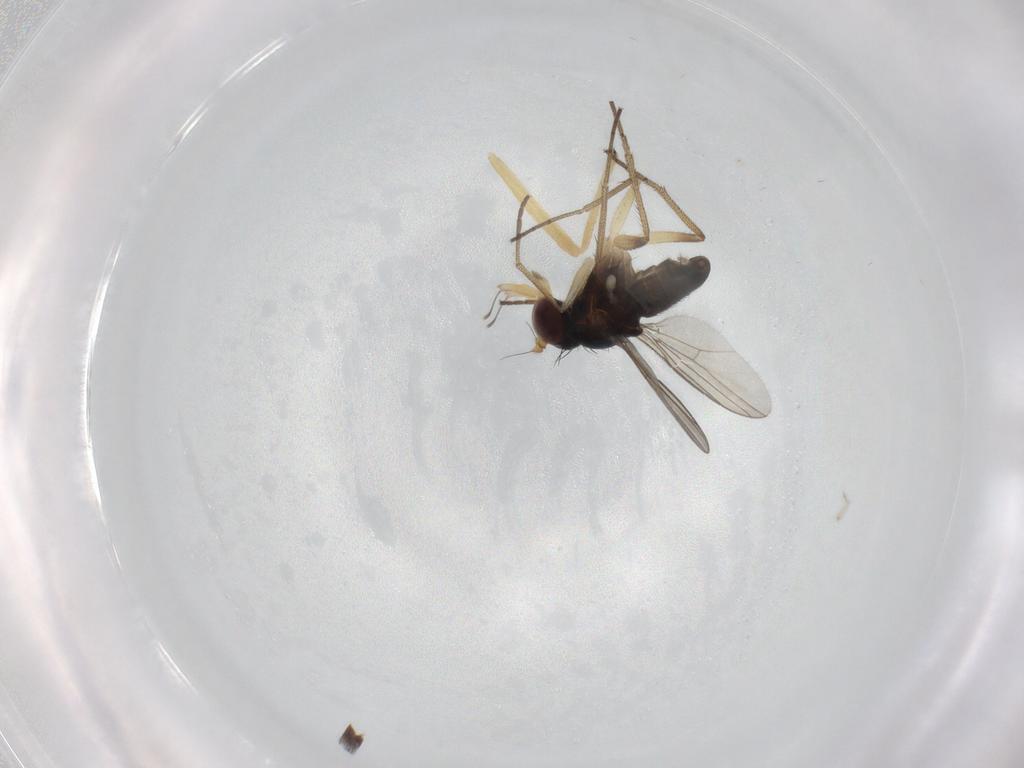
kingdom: Animalia
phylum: Arthropoda
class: Insecta
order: Diptera
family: Dolichopodidae
